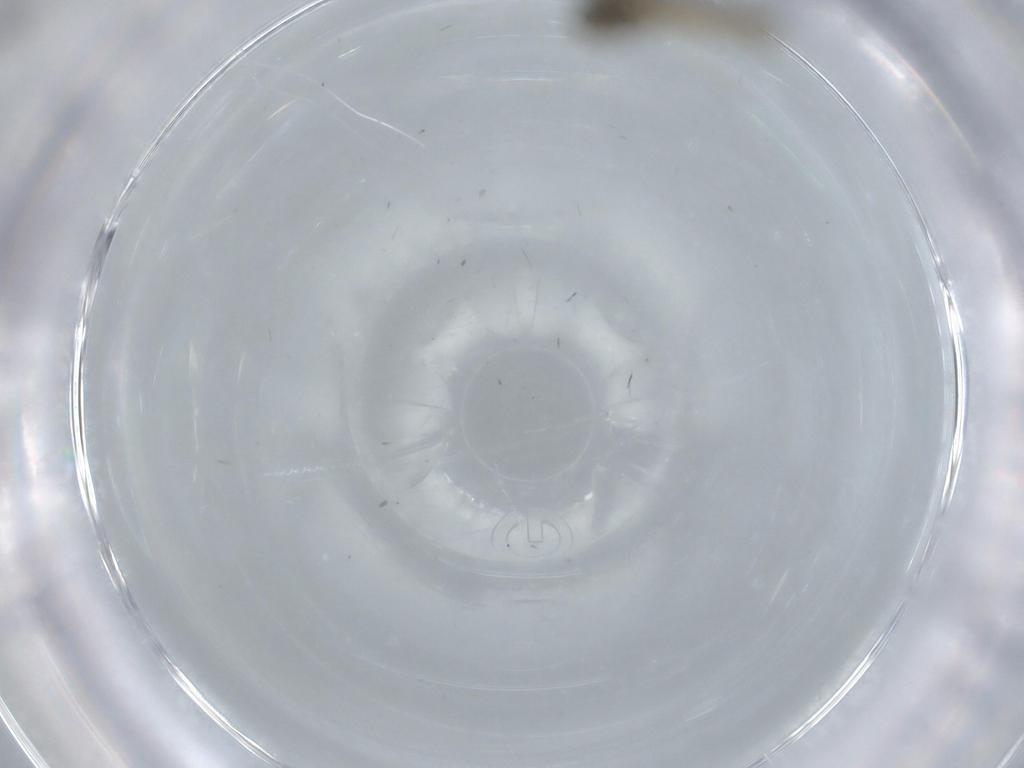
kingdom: Animalia
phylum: Arthropoda
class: Insecta
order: Diptera
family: Chironomidae
